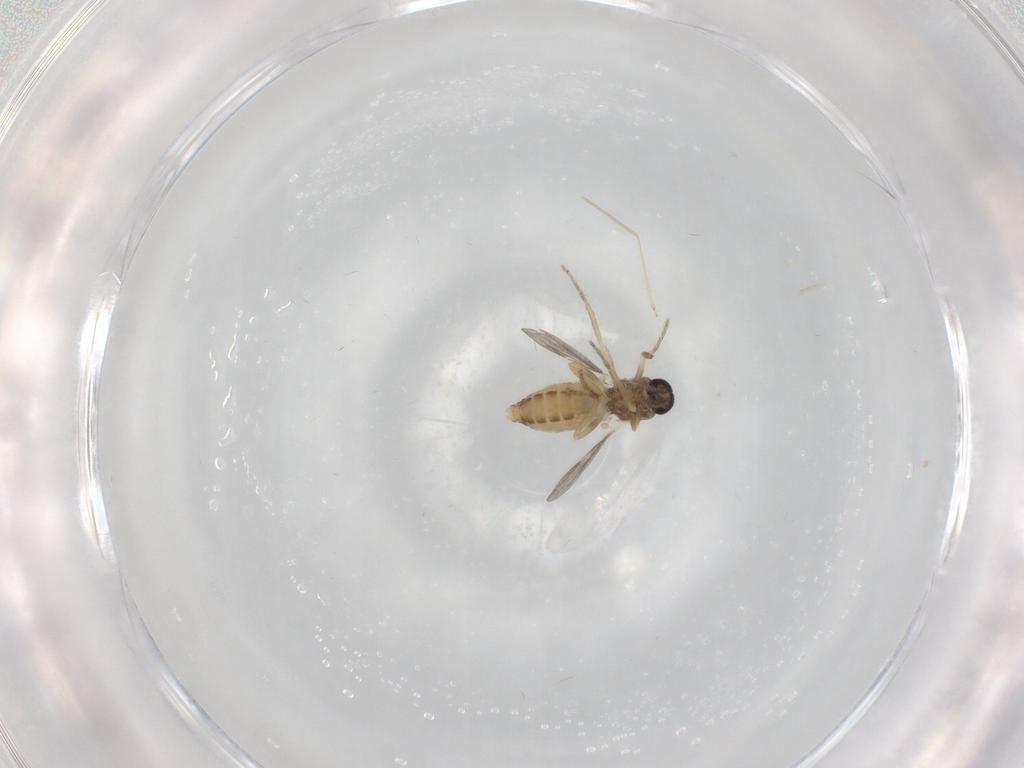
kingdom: Animalia
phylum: Arthropoda
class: Insecta
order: Diptera
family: Ceratopogonidae
